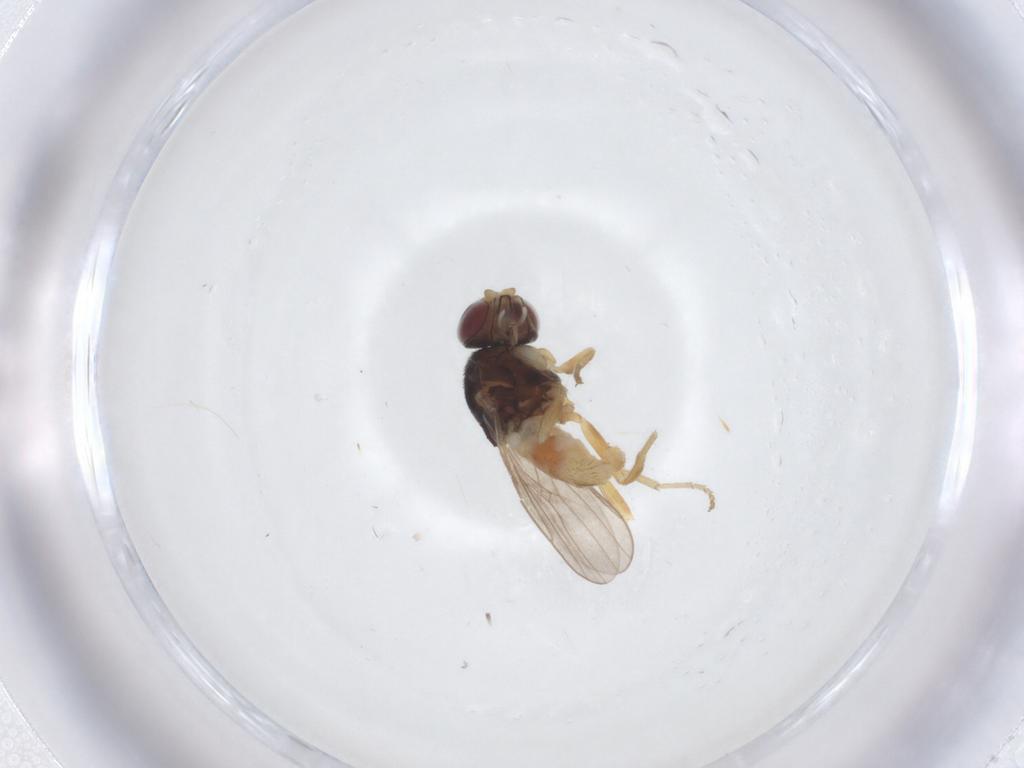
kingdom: Animalia
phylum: Arthropoda
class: Insecta
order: Diptera
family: Chloropidae
